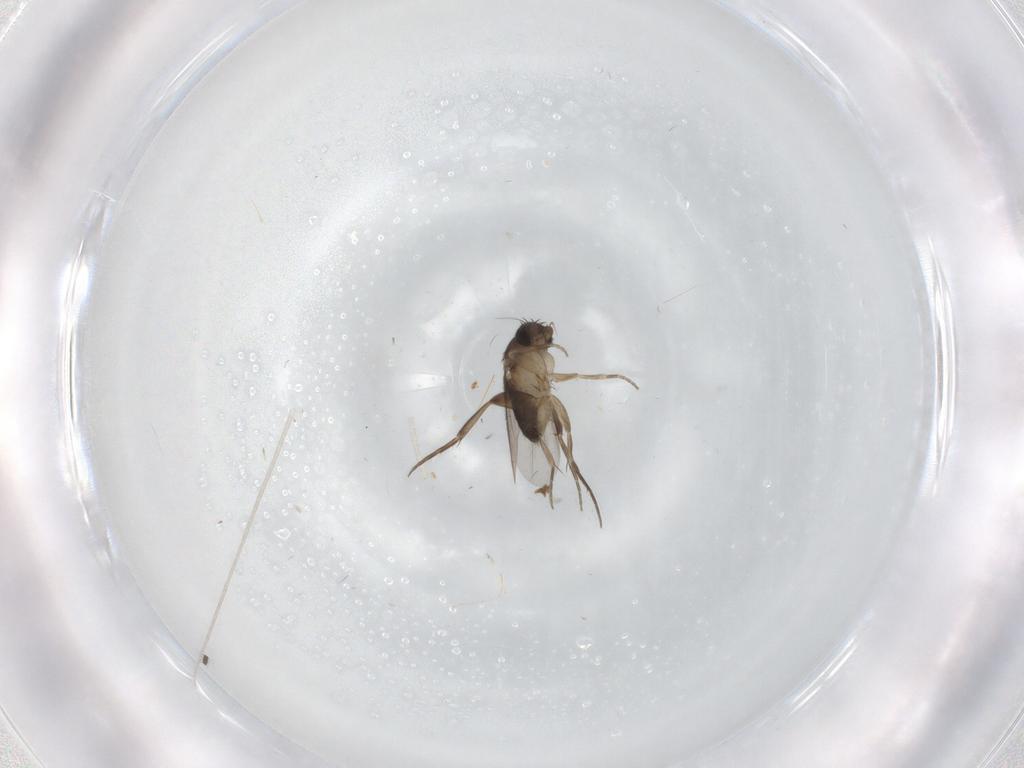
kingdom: Animalia
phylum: Arthropoda
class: Insecta
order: Diptera
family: Phoridae
